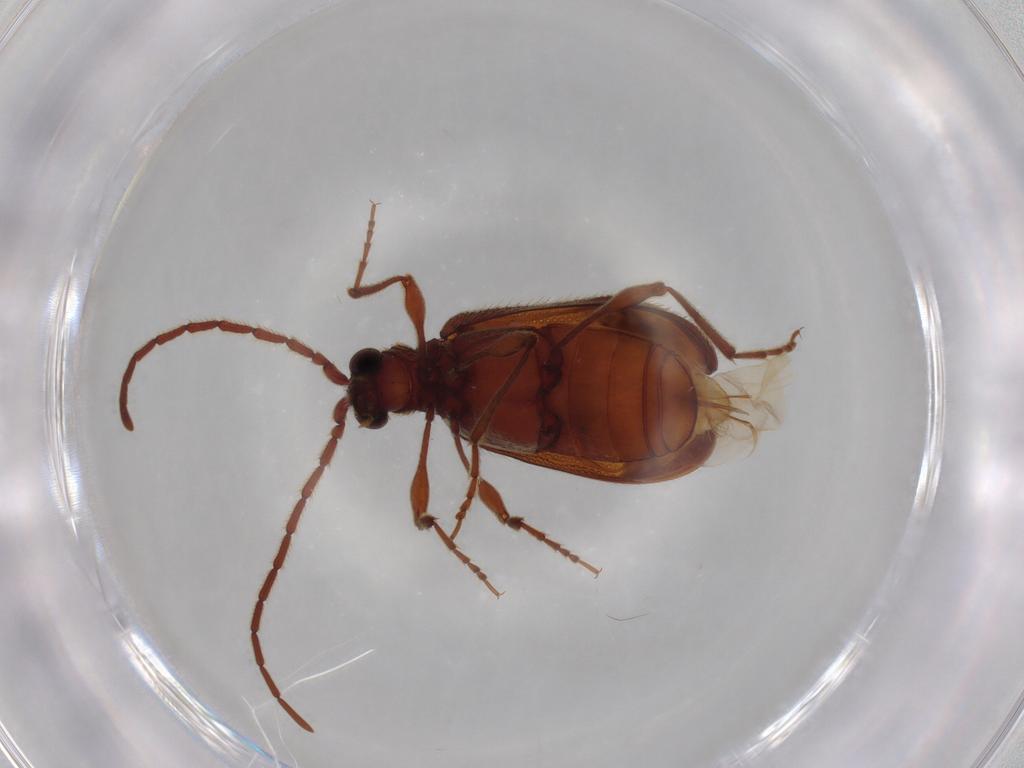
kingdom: Animalia
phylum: Arthropoda
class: Insecta
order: Coleoptera
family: Ptinidae
